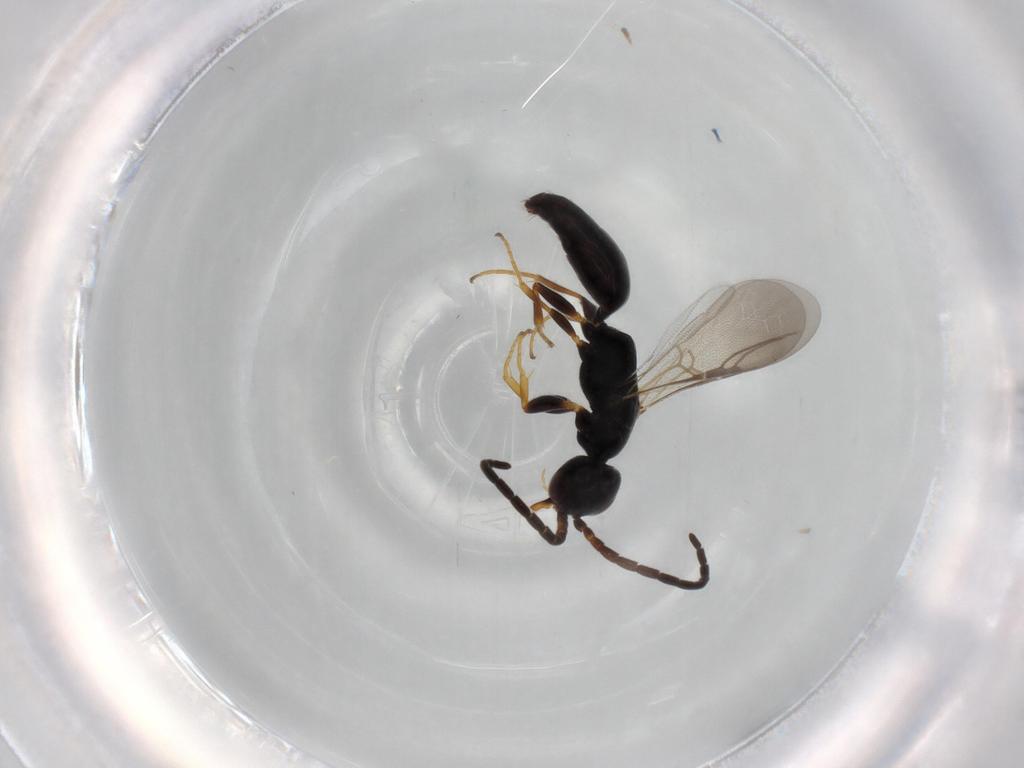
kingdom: Animalia
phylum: Arthropoda
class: Insecta
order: Hymenoptera
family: Bethylidae
